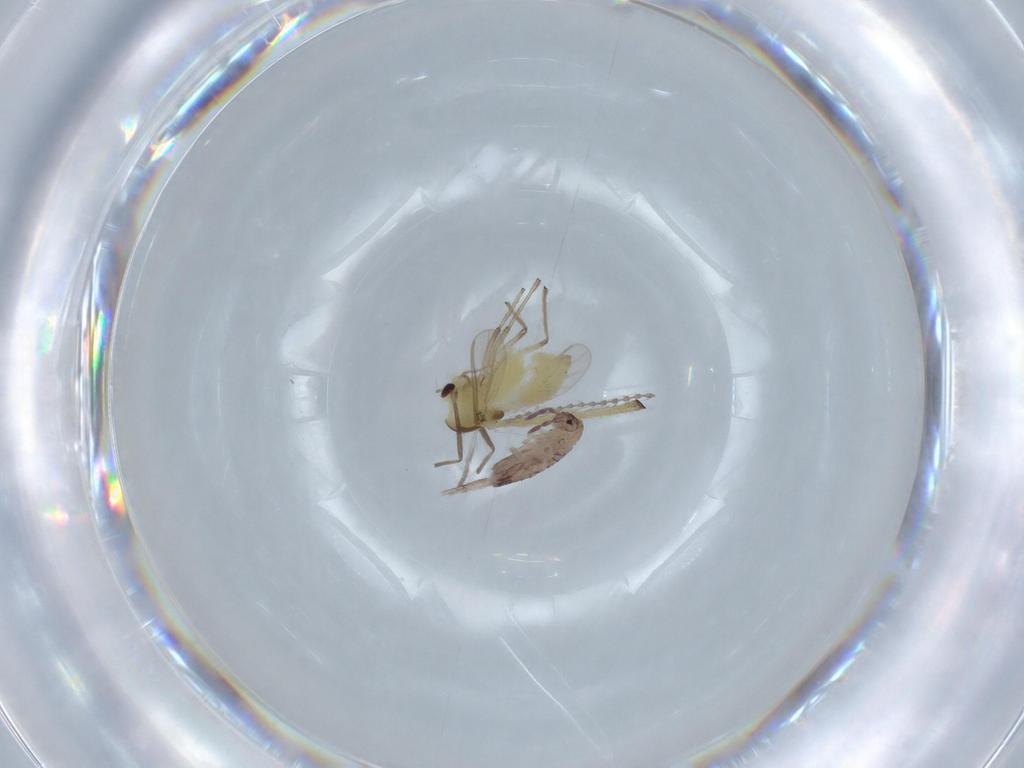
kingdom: Animalia
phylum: Arthropoda
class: Insecta
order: Diptera
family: Chironomidae
